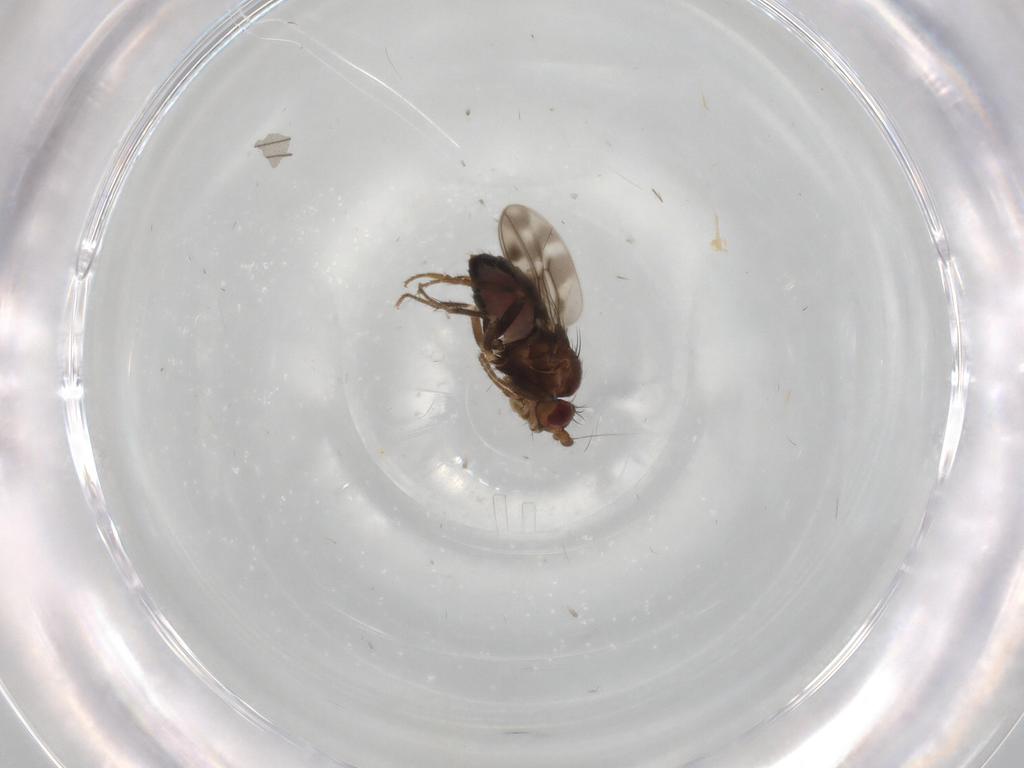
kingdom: Animalia
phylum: Arthropoda
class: Insecta
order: Diptera
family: Sphaeroceridae
